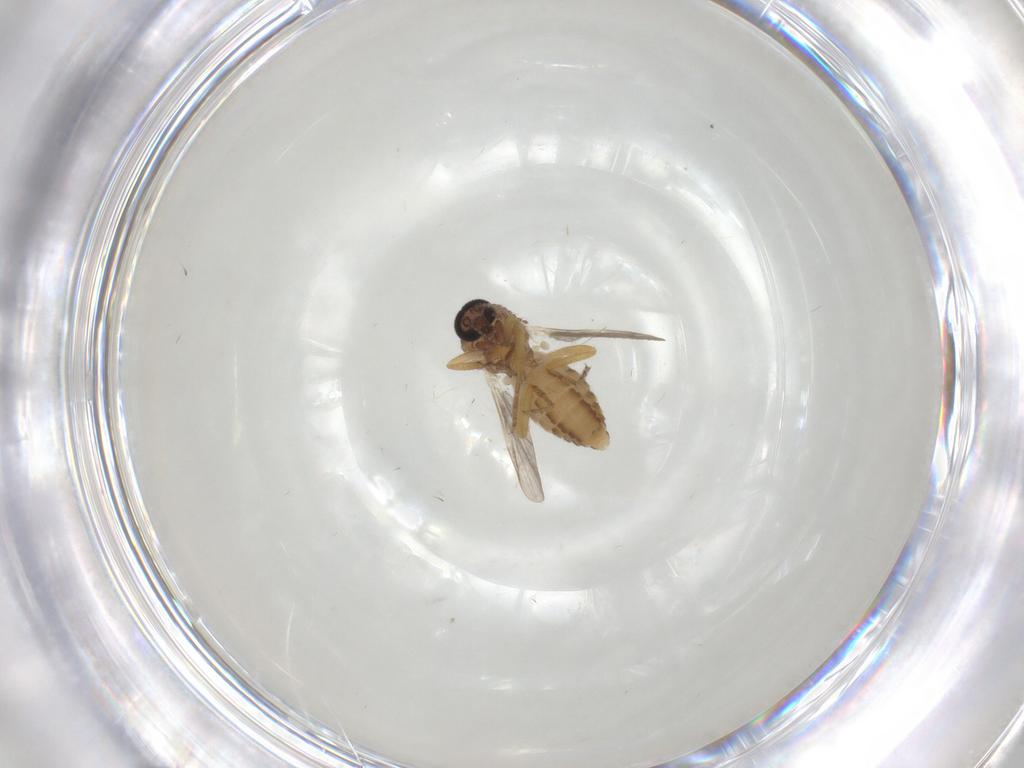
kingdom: Animalia
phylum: Arthropoda
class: Insecta
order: Diptera
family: Ceratopogonidae
